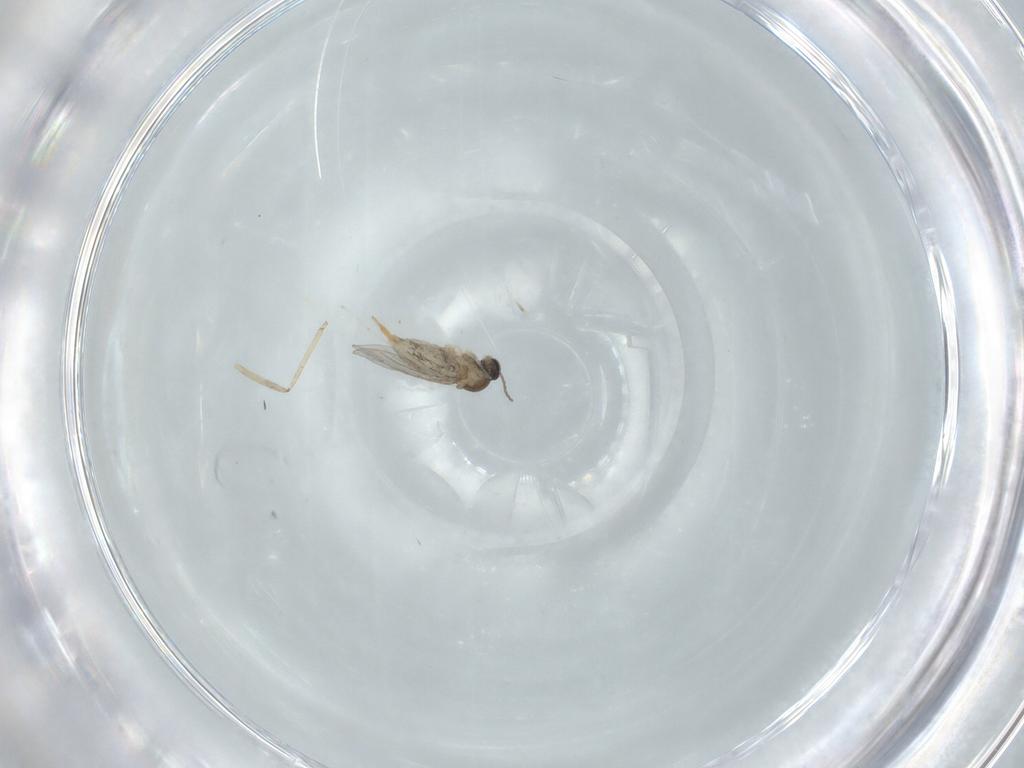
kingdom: Animalia
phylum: Arthropoda
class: Insecta
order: Diptera
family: Cecidomyiidae
